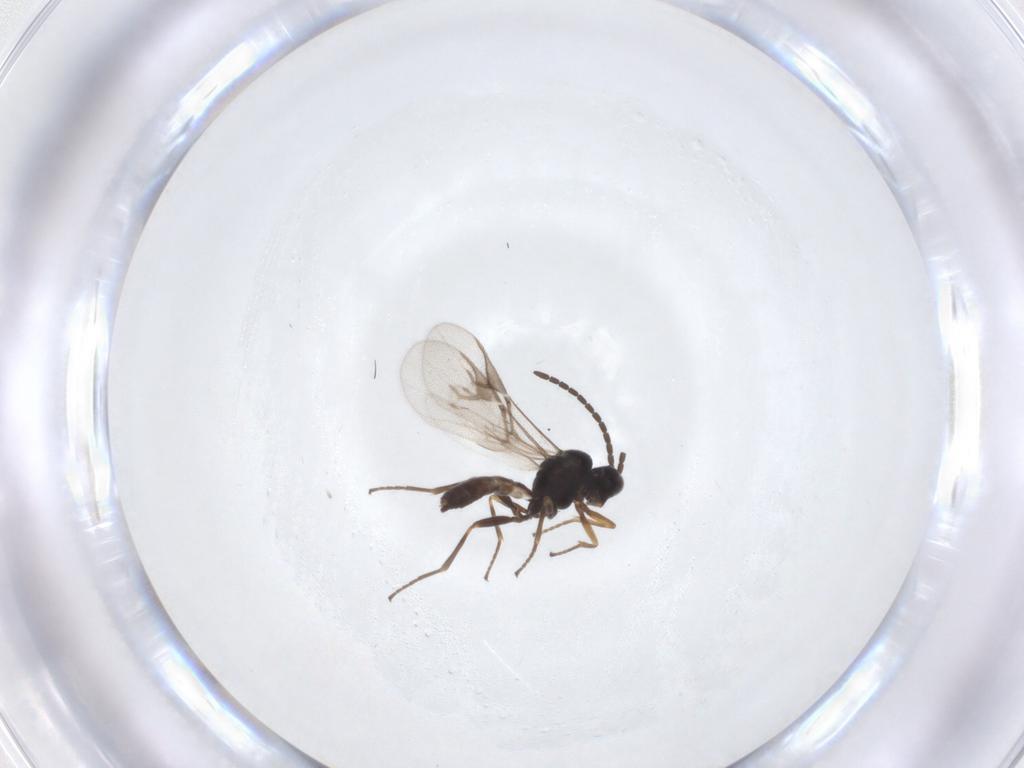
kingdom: Animalia
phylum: Arthropoda
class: Insecta
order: Hymenoptera
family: Braconidae
